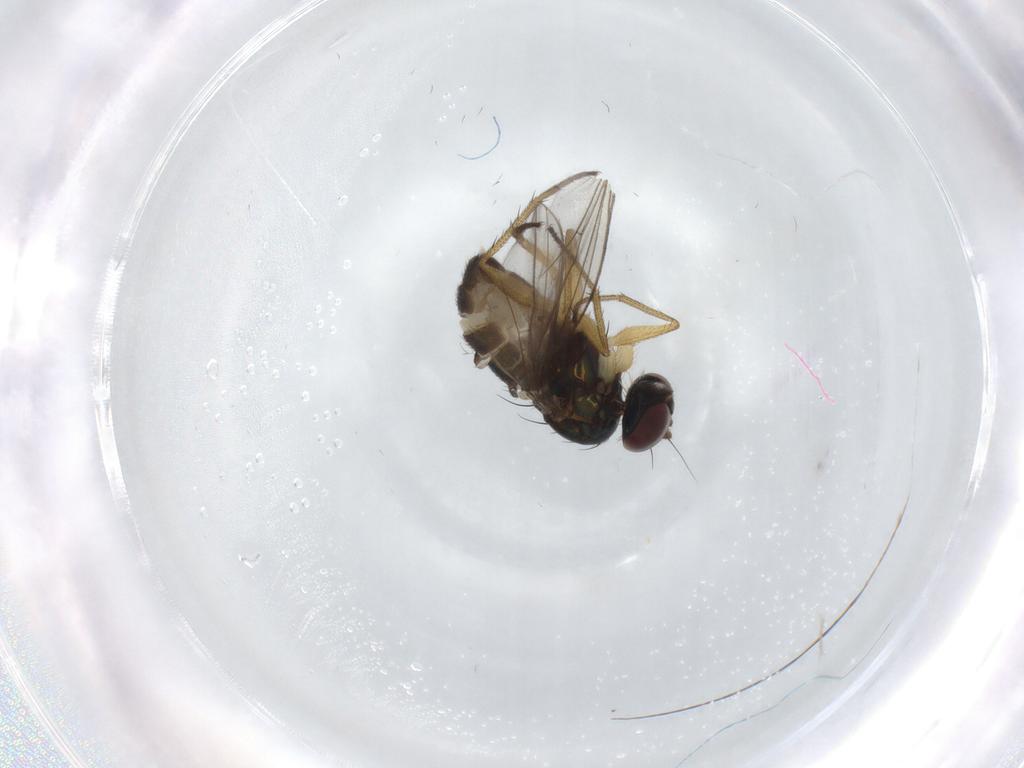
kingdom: Animalia
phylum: Arthropoda
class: Insecta
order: Diptera
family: Dolichopodidae
